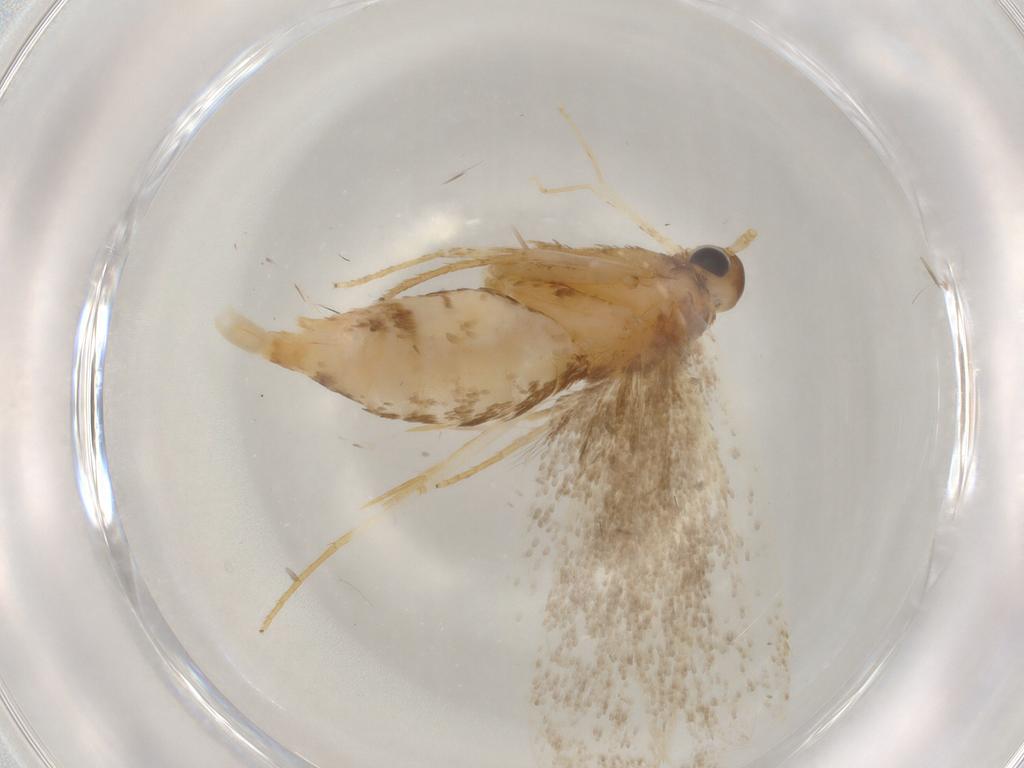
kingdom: Animalia
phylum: Arthropoda
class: Insecta
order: Lepidoptera
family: Lecithoceridae
